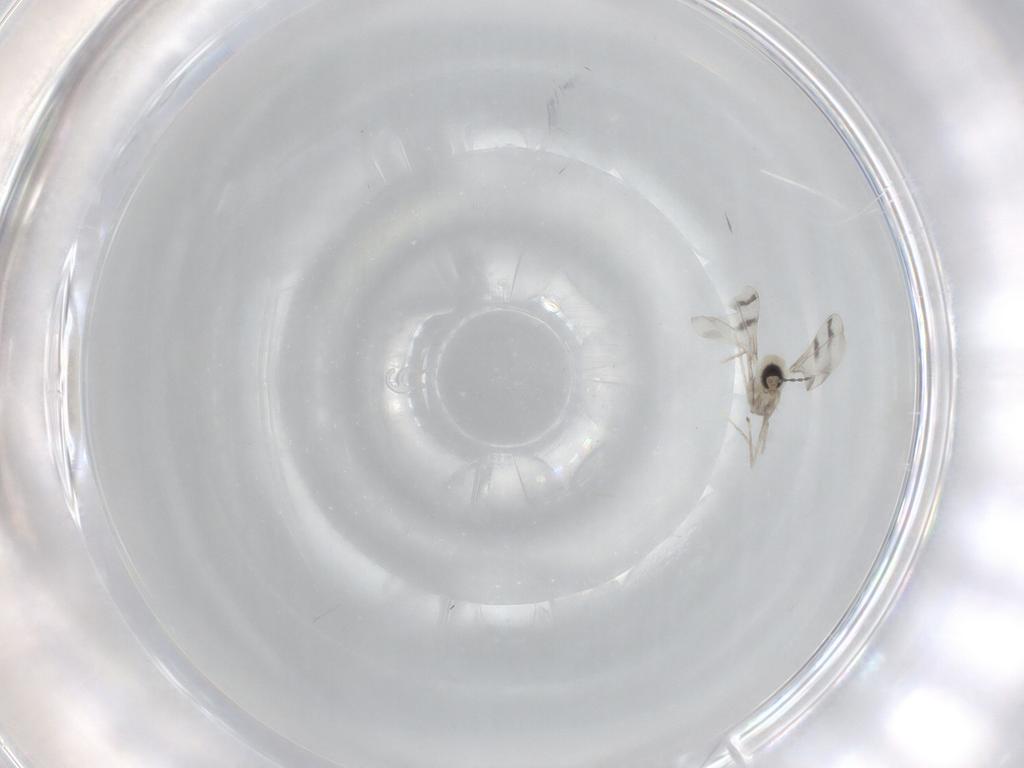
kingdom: Animalia
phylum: Arthropoda
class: Insecta
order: Diptera
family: Cecidomyiidae
